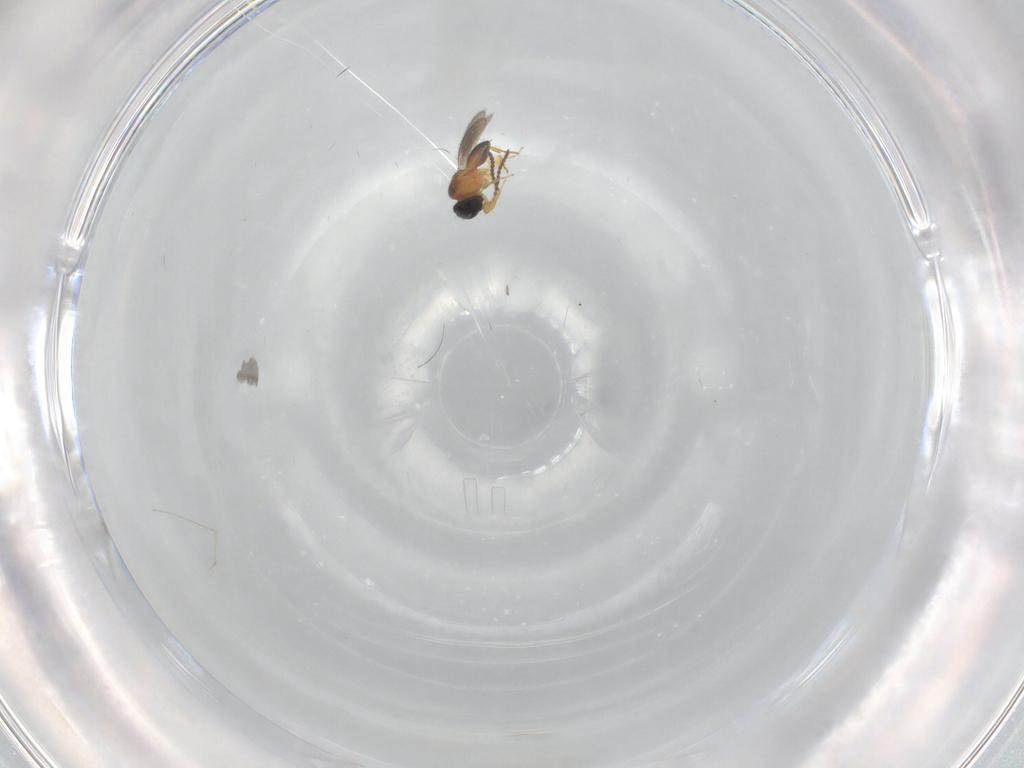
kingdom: Animalia
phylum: Arthropoda
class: Insecta
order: Hymenoptera
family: Scelionidae
